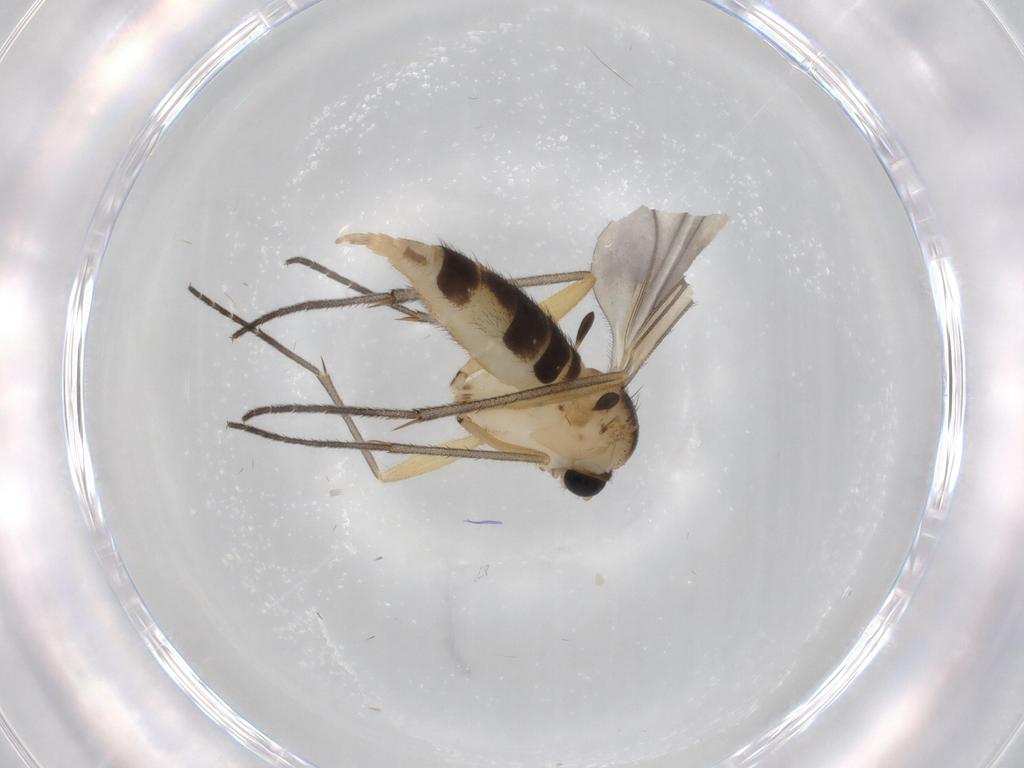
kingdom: Animalia
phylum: Arthropoda
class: Insecta
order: Diptera
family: Sciaridae
